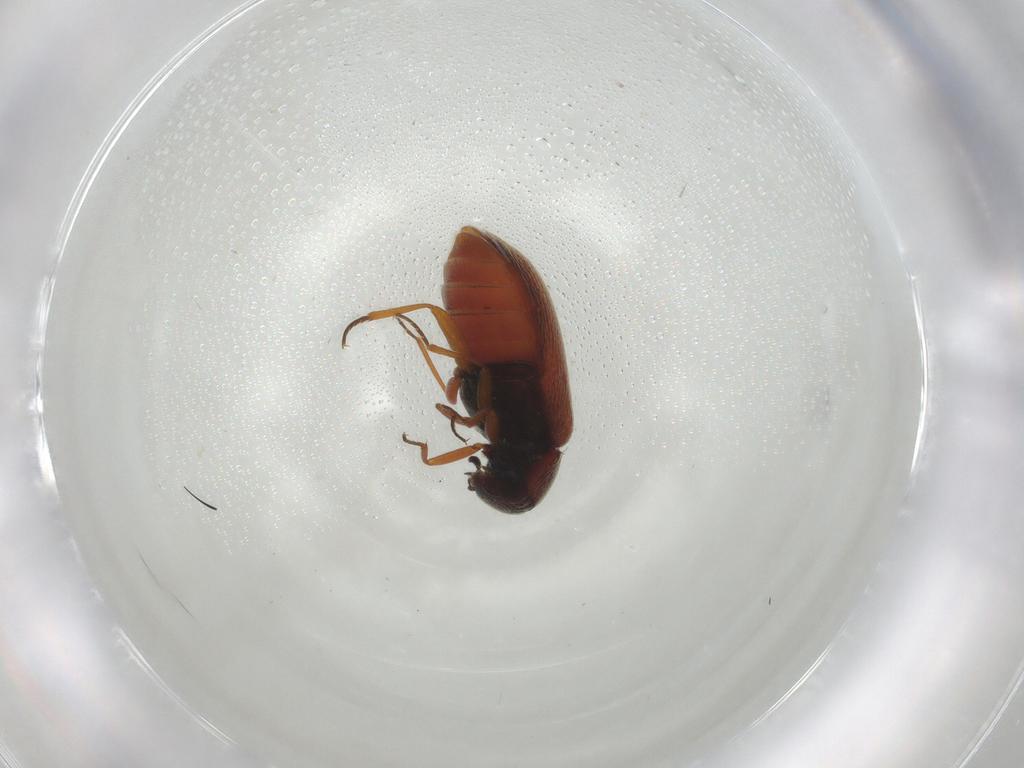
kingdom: Animalia
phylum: Arthropoda
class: Insecta
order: Coleoptera
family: Rhadalidae
